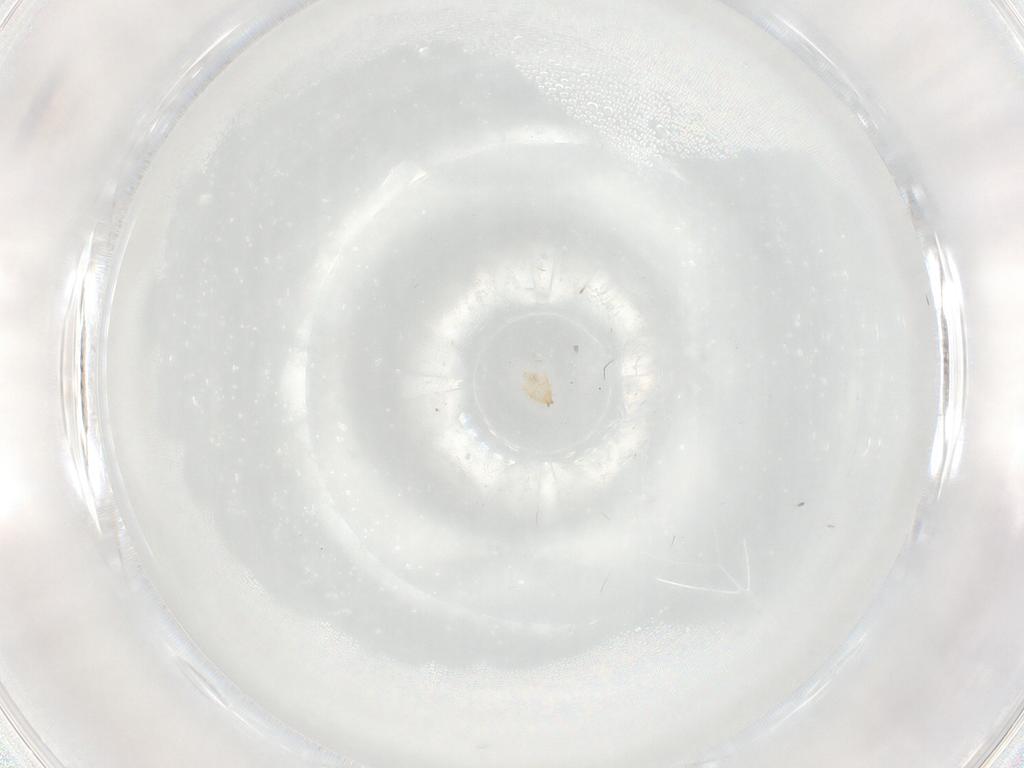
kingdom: Animalia
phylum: Arthropoda
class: Insecta
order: Diptera
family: Cecidomyiidae
